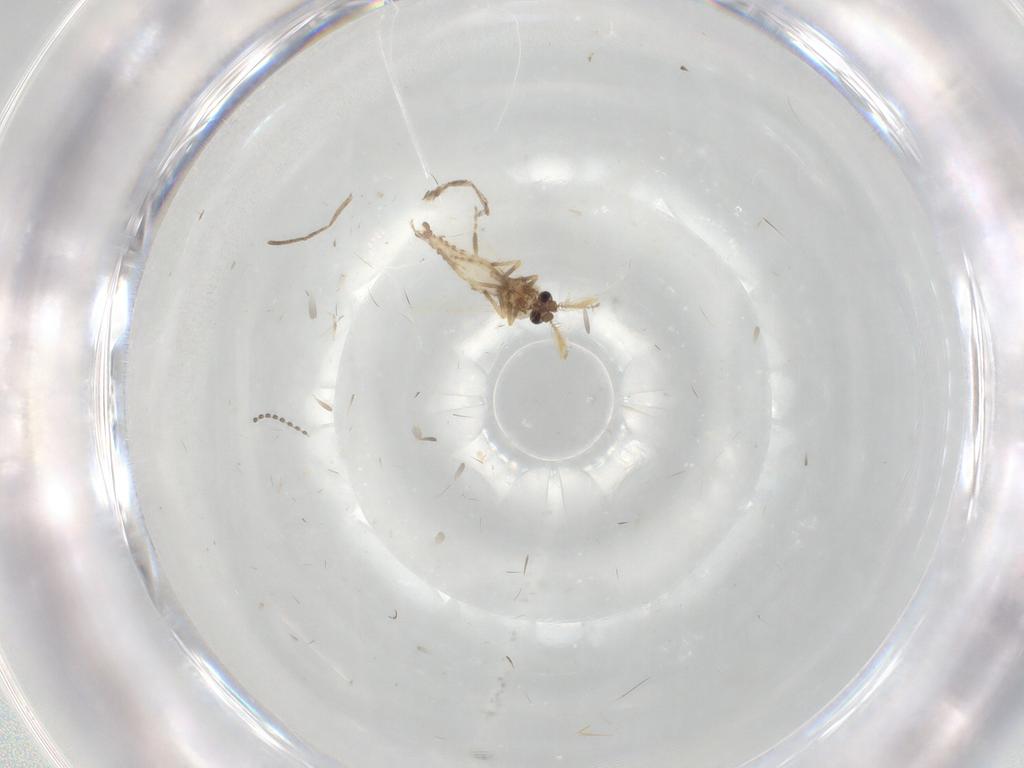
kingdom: Animalia
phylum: Arthropoda
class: Insecta
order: Diptera
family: Ceratopogonidae
